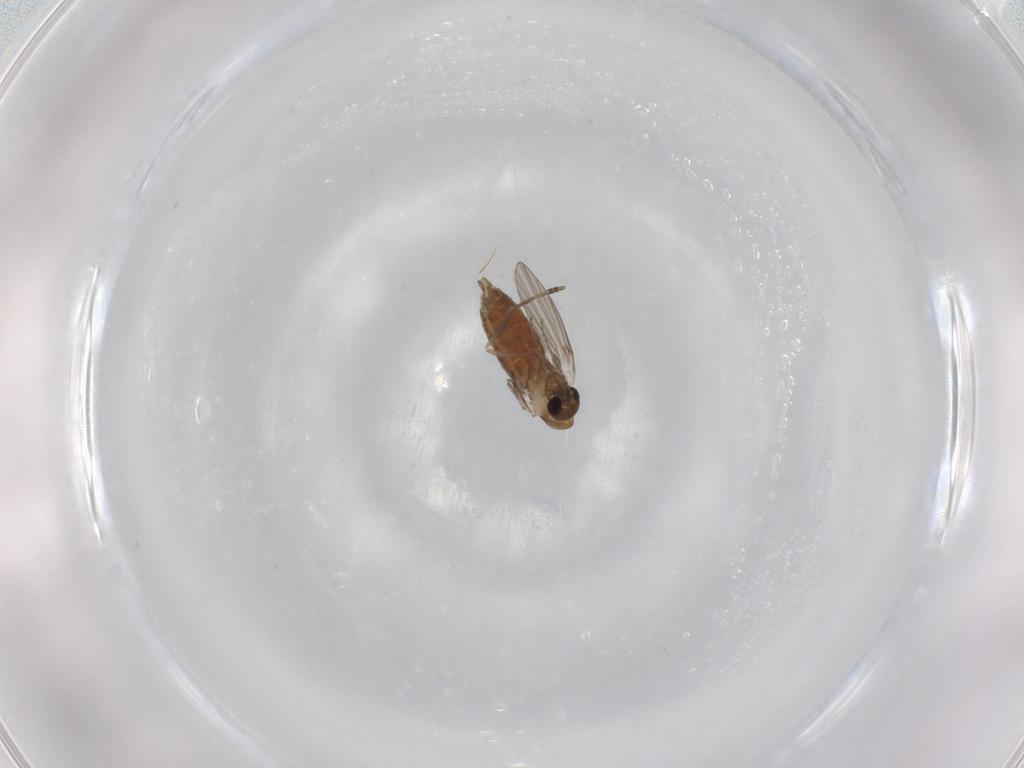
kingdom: Animalia
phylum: Arthropoda
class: Insecta
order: Diptera
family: Psychodidae
